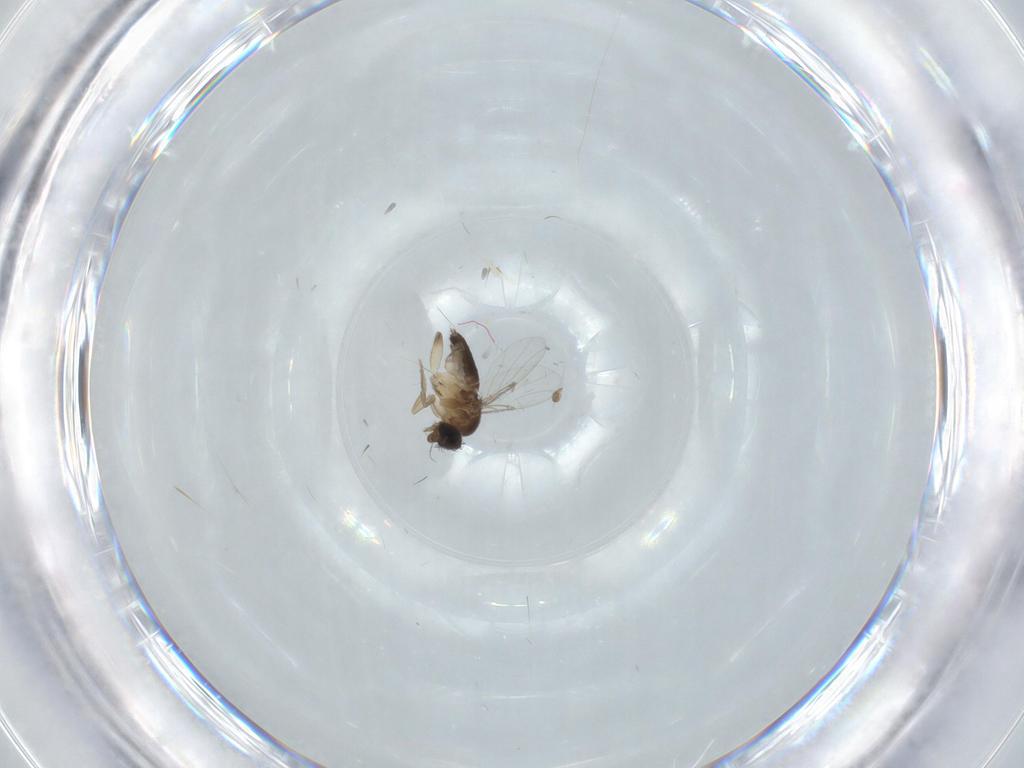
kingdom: Animalia
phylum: Arthropoda
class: Insecta
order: Diptera
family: Phoridae
